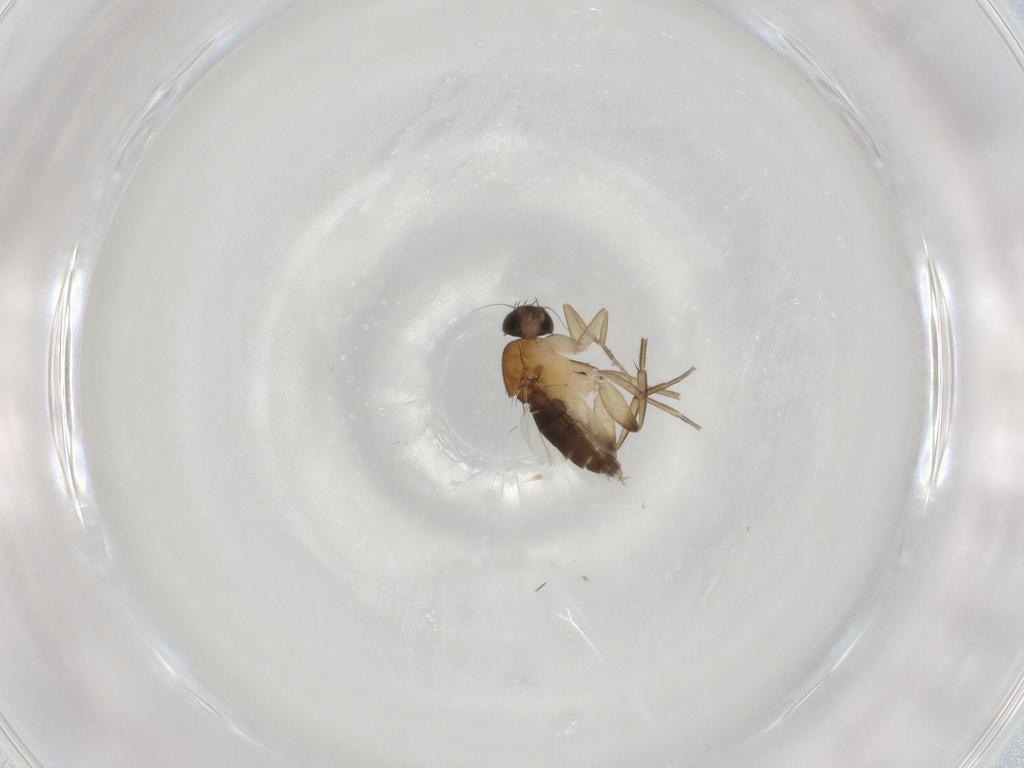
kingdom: Animalia
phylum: Arthropoda
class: Insecta
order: Diptera
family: Phoridae
